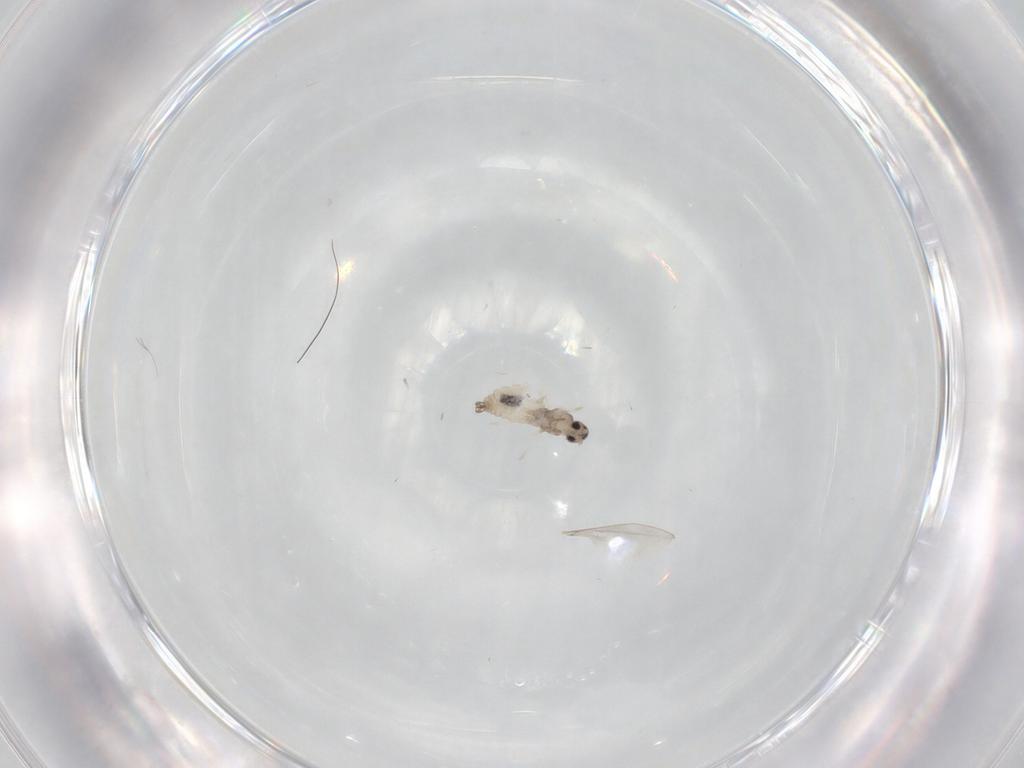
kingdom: Animalia
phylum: Arthropoda
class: Insecta
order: Diptera
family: Cecidomyiidae
